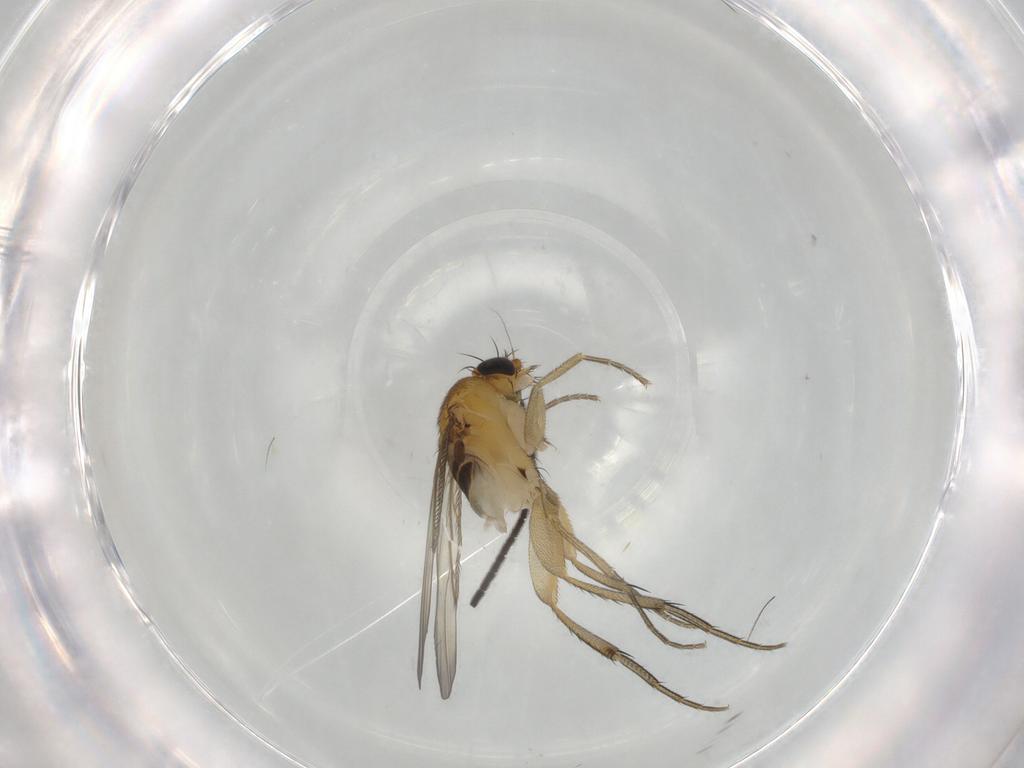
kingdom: Animalia
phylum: Arthropoda
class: Insecta
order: Diptera
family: Phoridae
